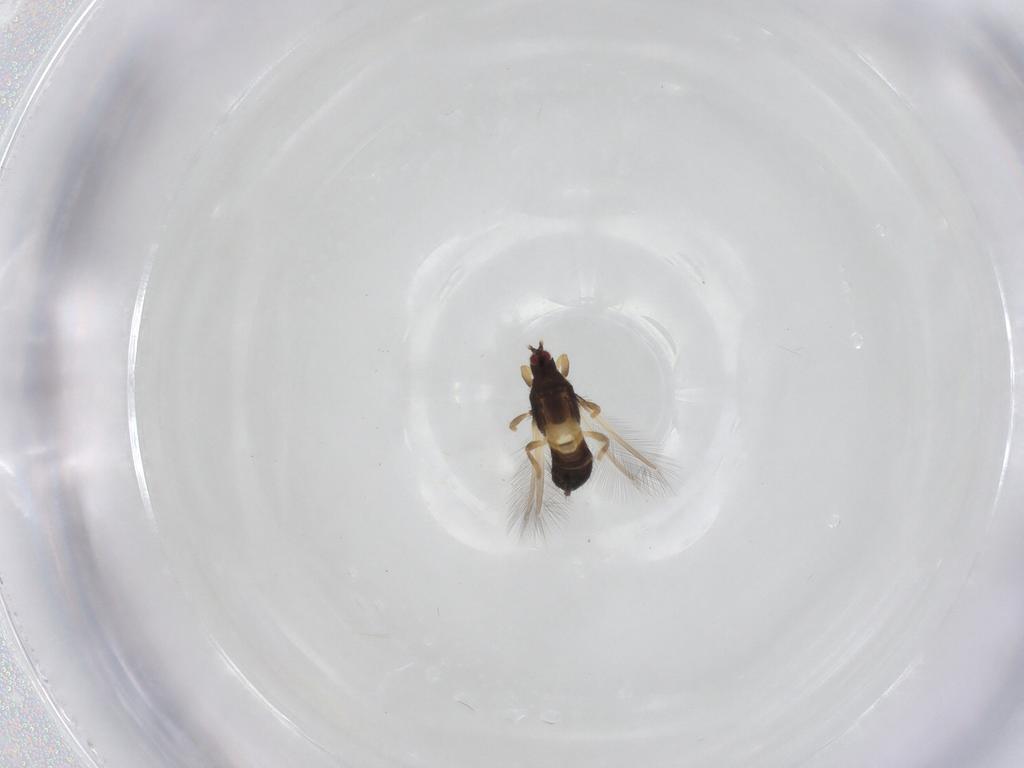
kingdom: Animalia
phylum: Arthropoda
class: Insecta
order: Thysanoptera
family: Phlaeothripidae
